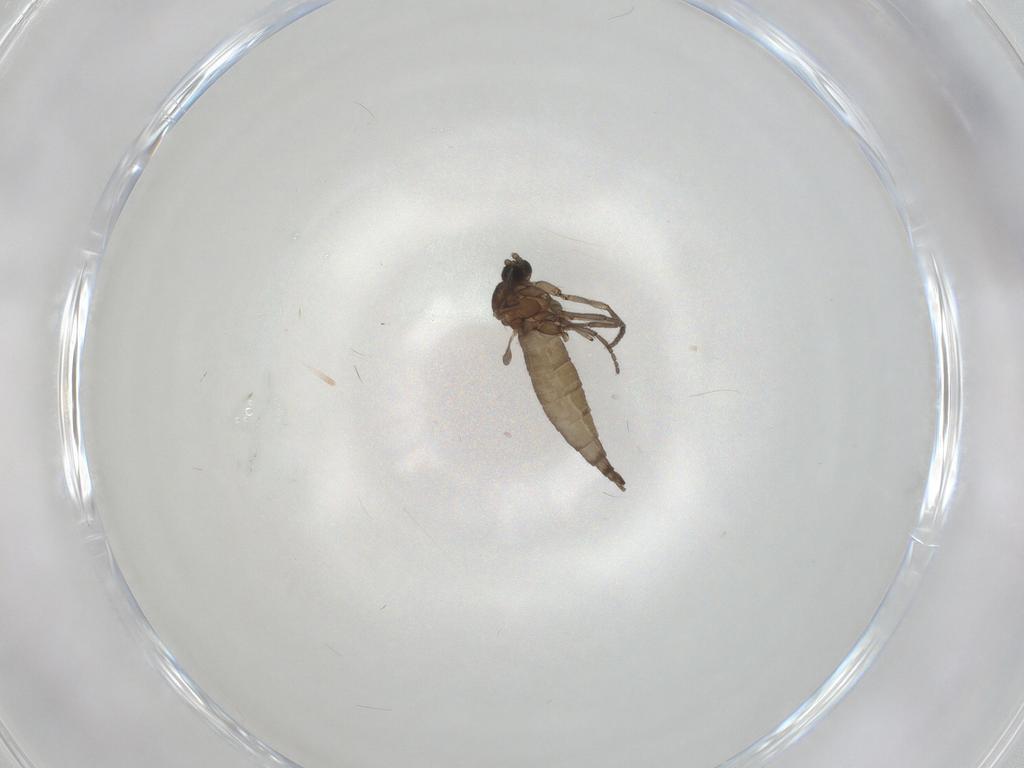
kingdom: Animalia
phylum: Arthropoda
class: Insecta
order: Diptera
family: Sciaridae
